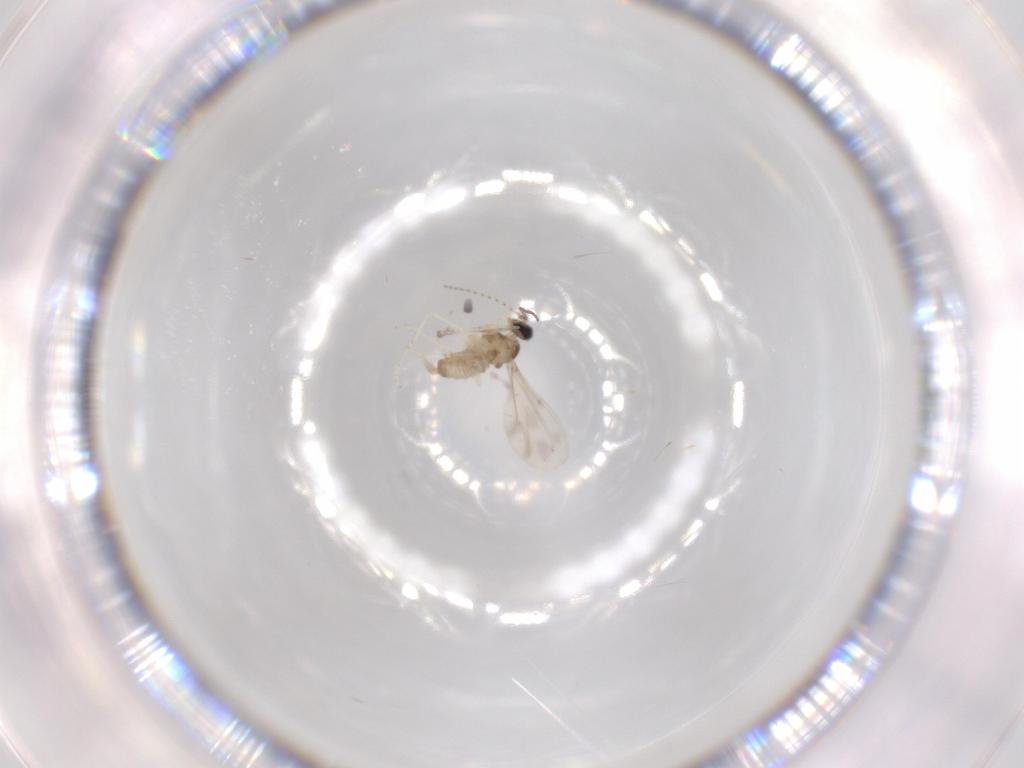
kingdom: Animalia
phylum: Arthropoda
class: Insecta
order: Diptera
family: Cecidomyiidae
